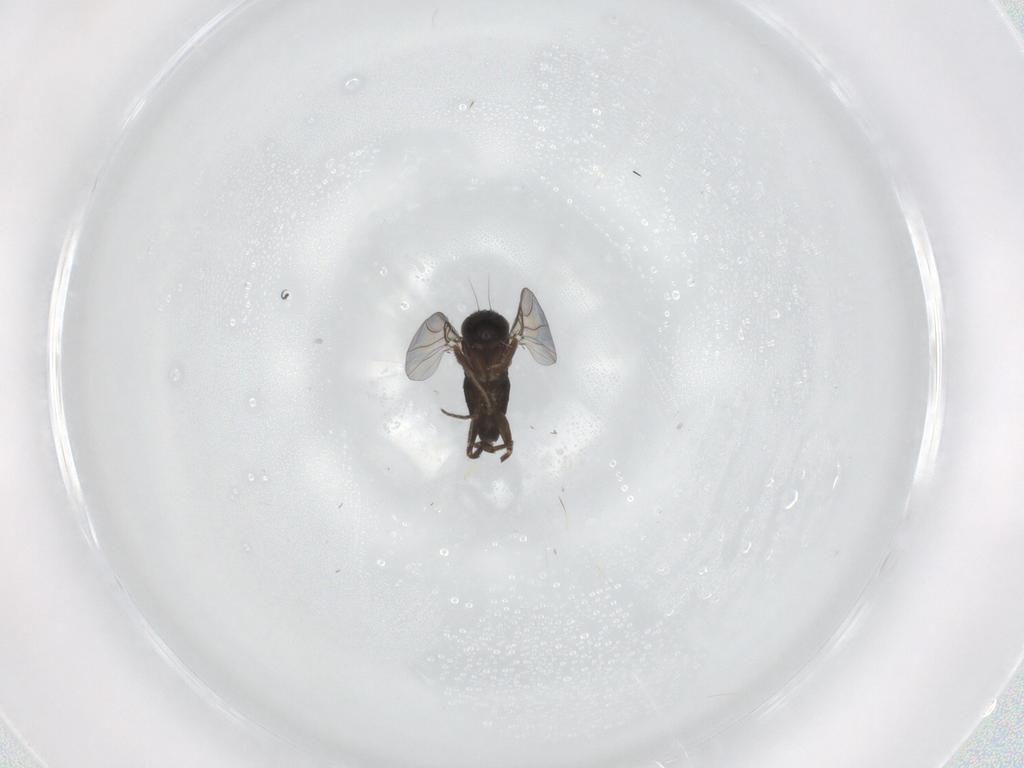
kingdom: Animalia
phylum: Arthropoda
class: Insecta
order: Diptera
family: Phoridae
